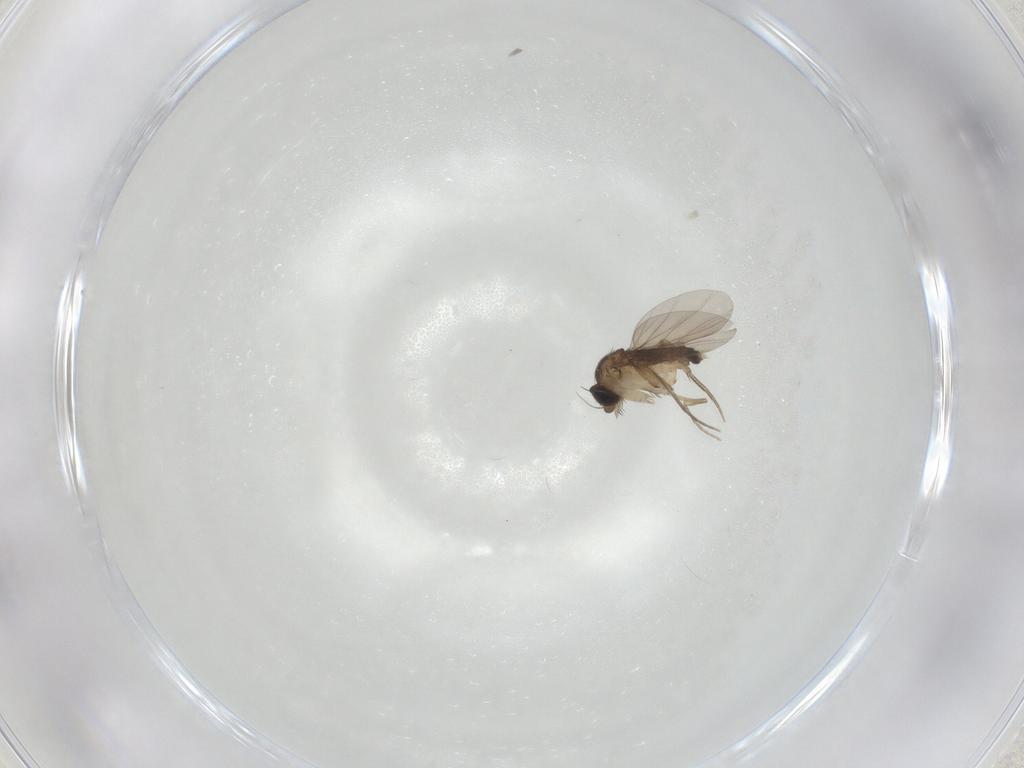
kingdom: Animalia
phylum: Arthropoda
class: Insecta
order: Diptera
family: Phoridae
